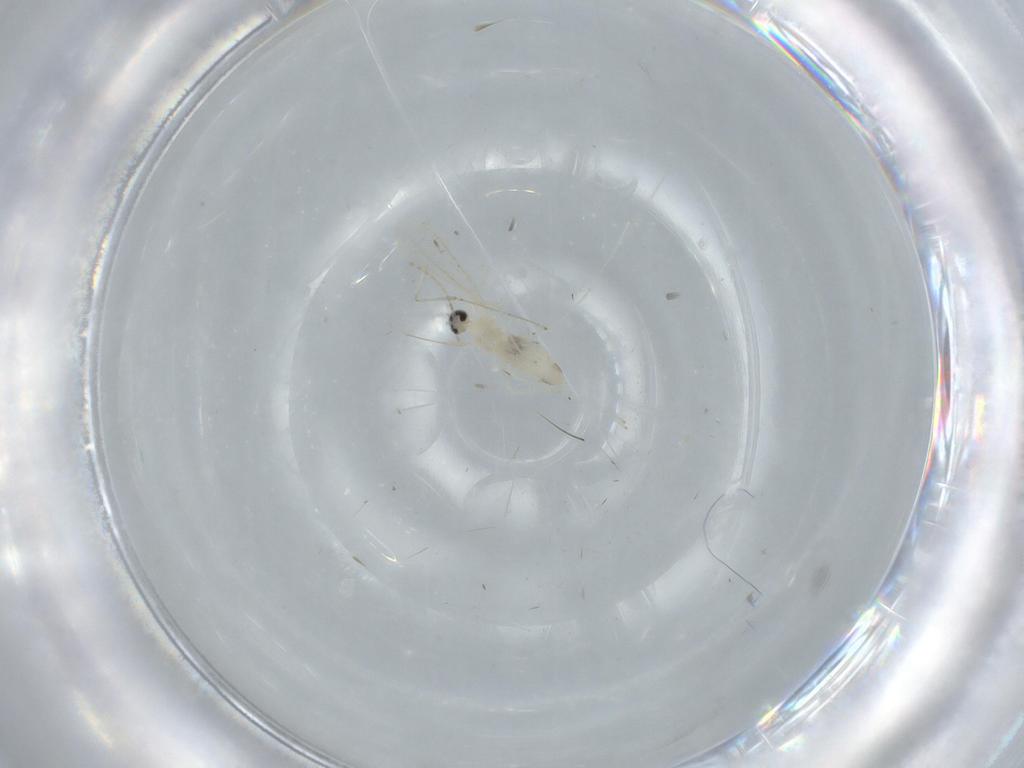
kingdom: Animalia
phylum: Arthropoda
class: Insecta
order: Diptera
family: Cecidomyiidae
